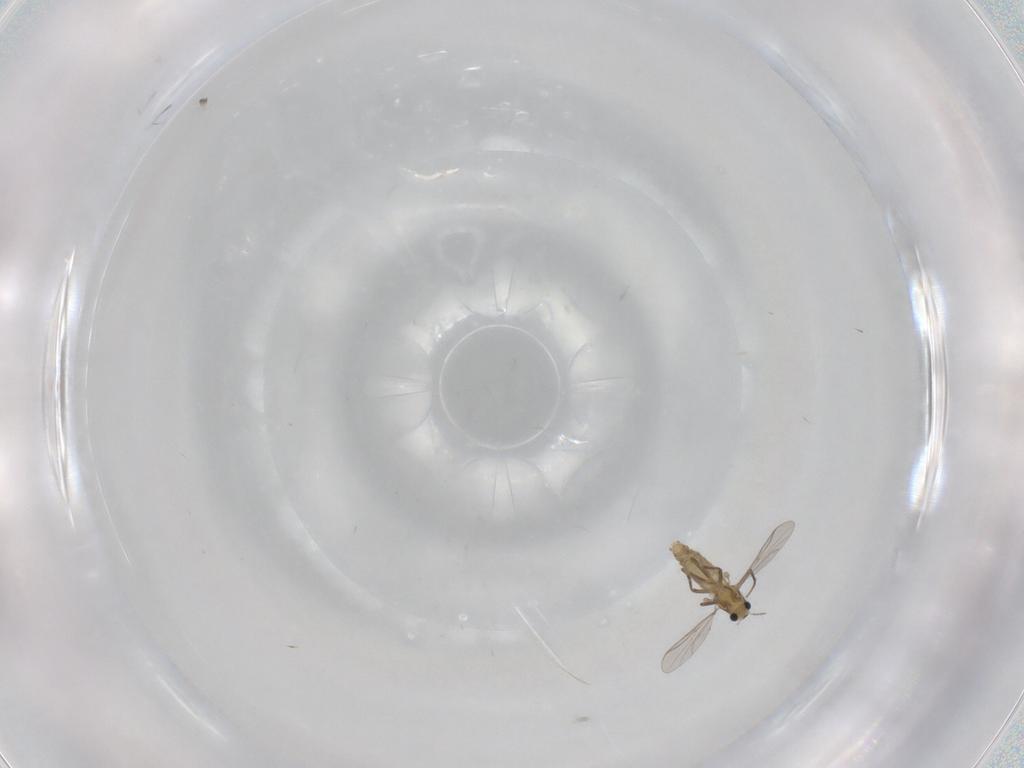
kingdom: Animalia
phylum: Arthropoda
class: Insecta
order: Diptera
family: Chironomidae
